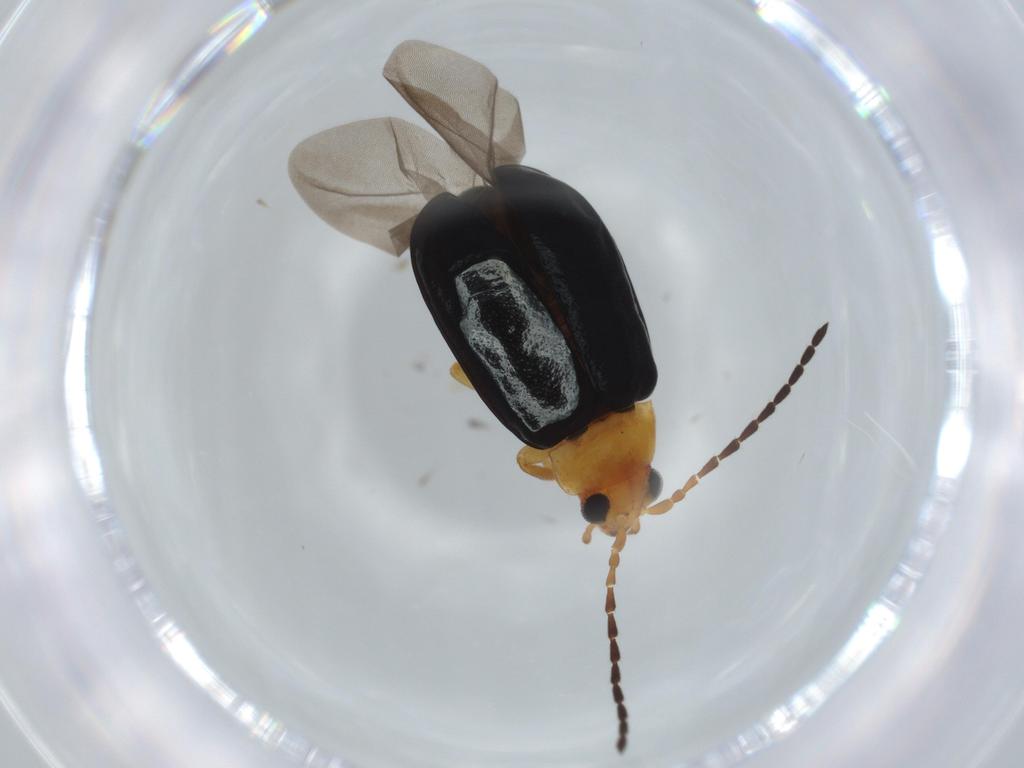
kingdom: Animalia
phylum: Arthropoda
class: Insecta
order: Coleoptera
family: Chrysomelidae
